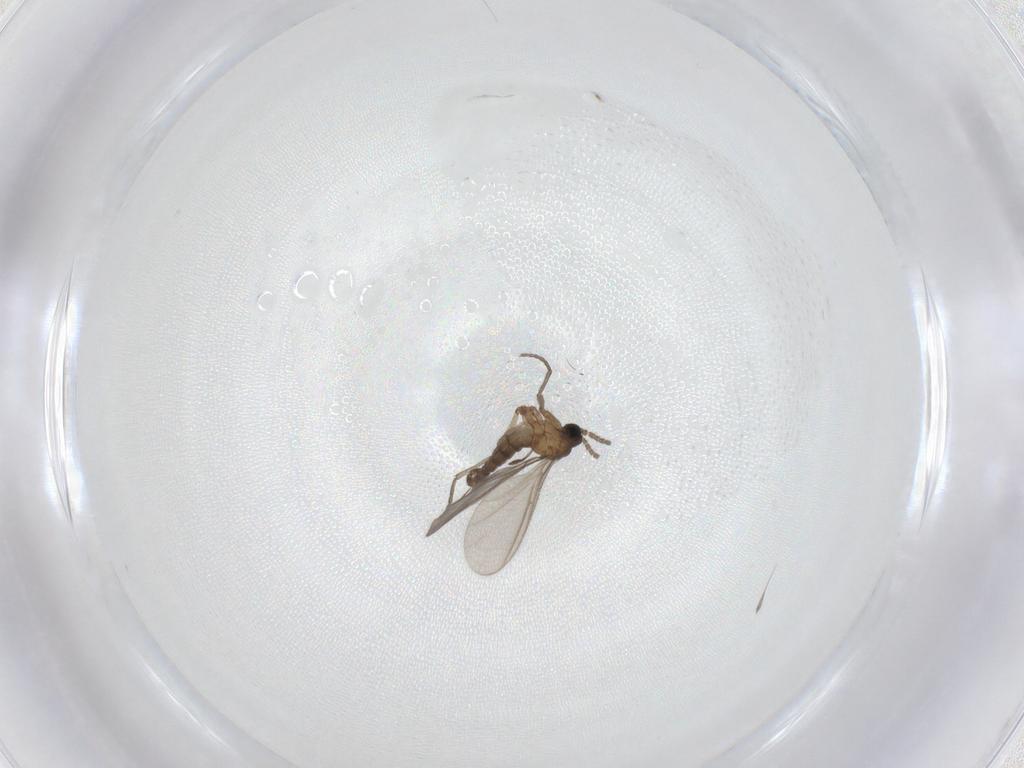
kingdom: Animalia
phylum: Arthropoda
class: Insecta
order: Diptera
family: Sciaridae
